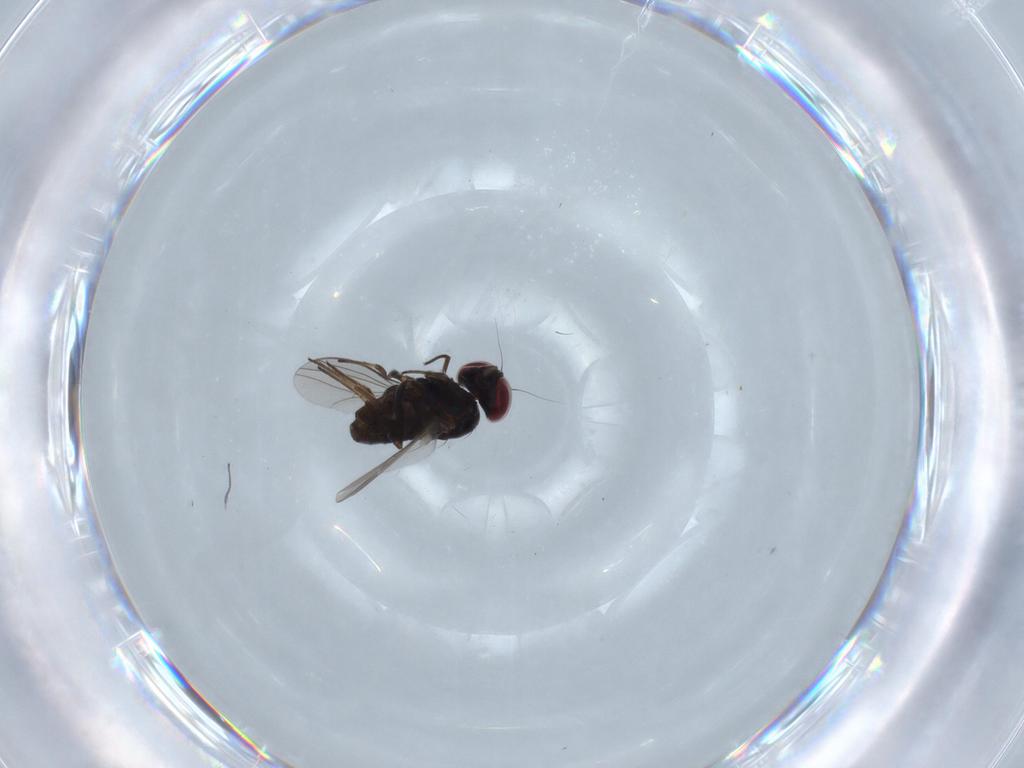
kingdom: Animalia
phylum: Arthropoda
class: Insecta
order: Diptera
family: Dolichopodidae
